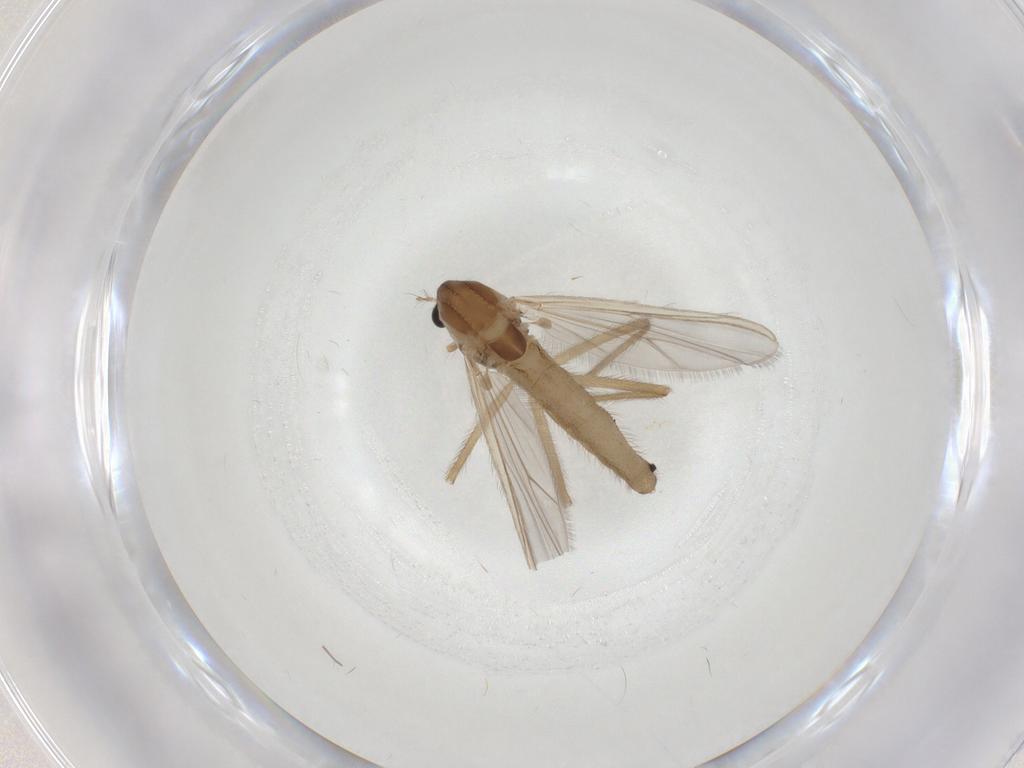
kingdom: Animalia
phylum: Arthropoda
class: Insecta
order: Diptera
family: Chironomidae
